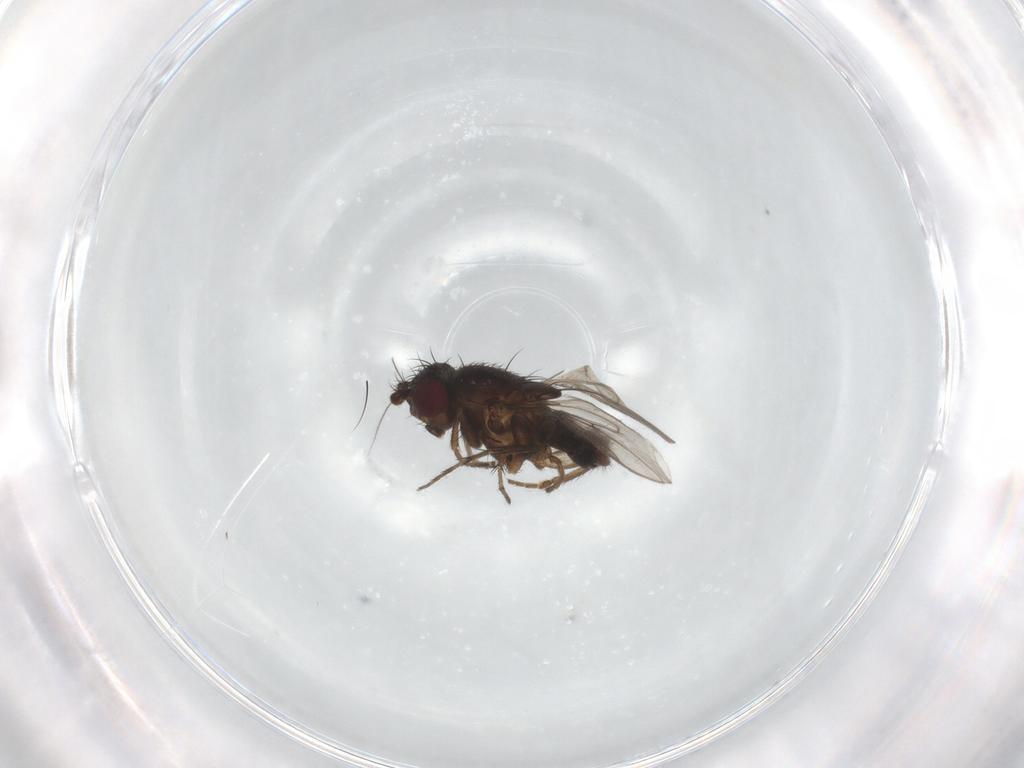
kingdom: Animalia
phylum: Arthropoda
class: Insecta
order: Diptera
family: Sphaeroceridae
